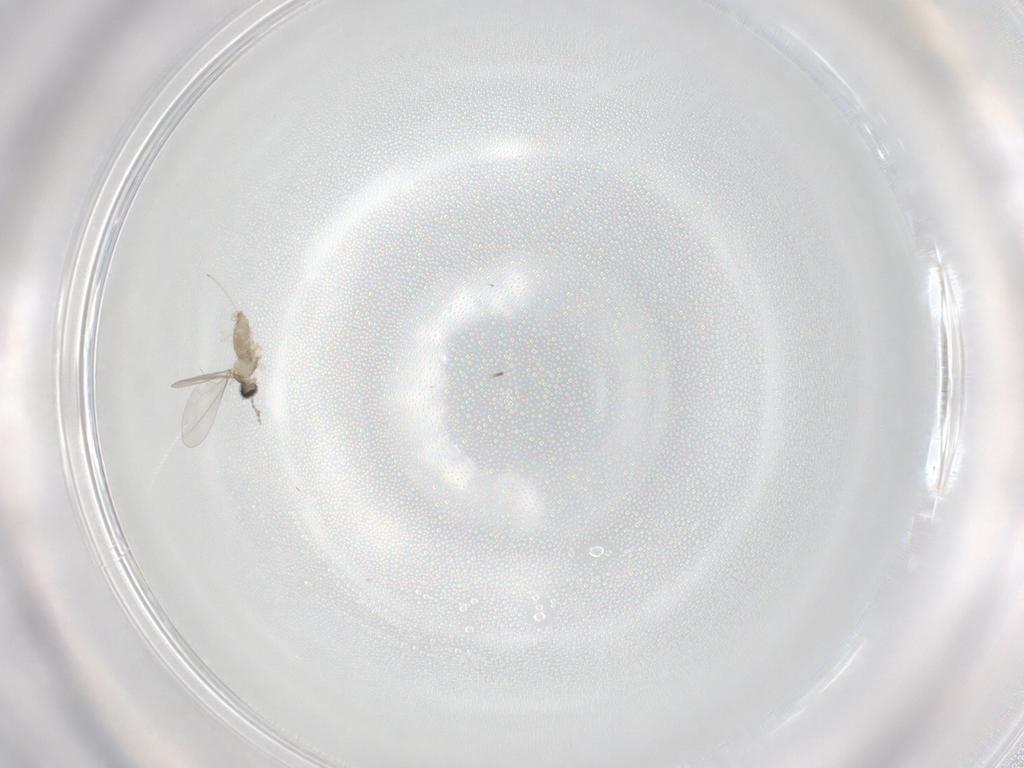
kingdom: Animalia
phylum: Arthropoda
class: Insecta
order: Diptera
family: Cecidomyiidae
